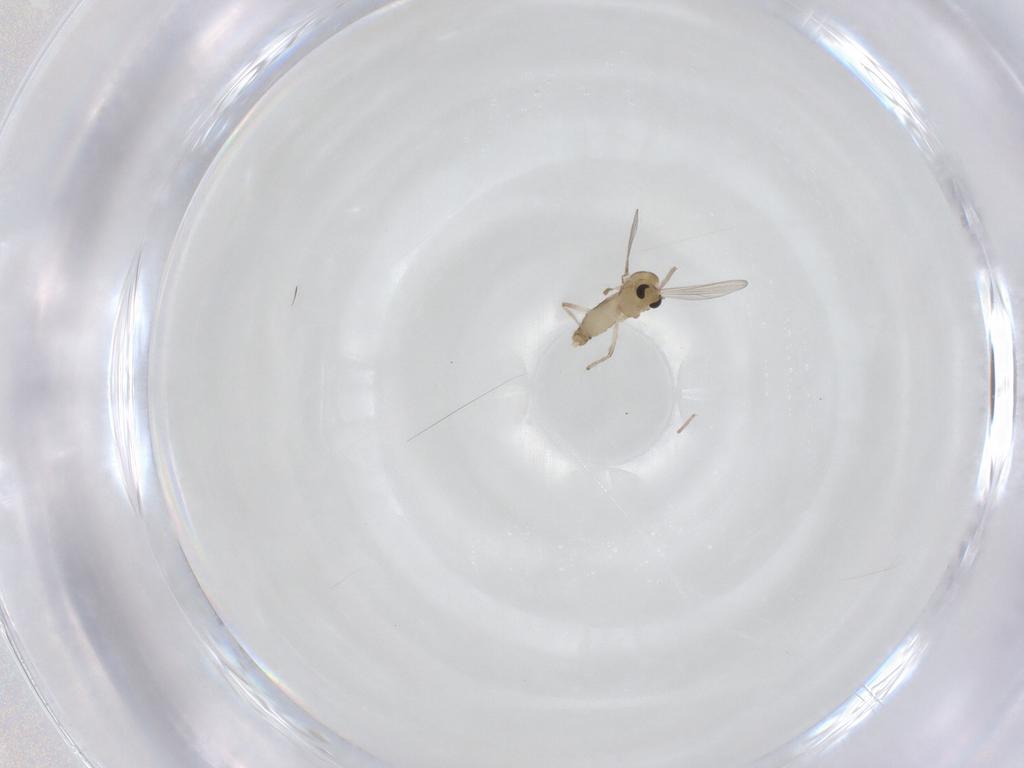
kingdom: Animalia
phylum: Arthropoda
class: Insecta
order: Diptera
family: Chironomidae
